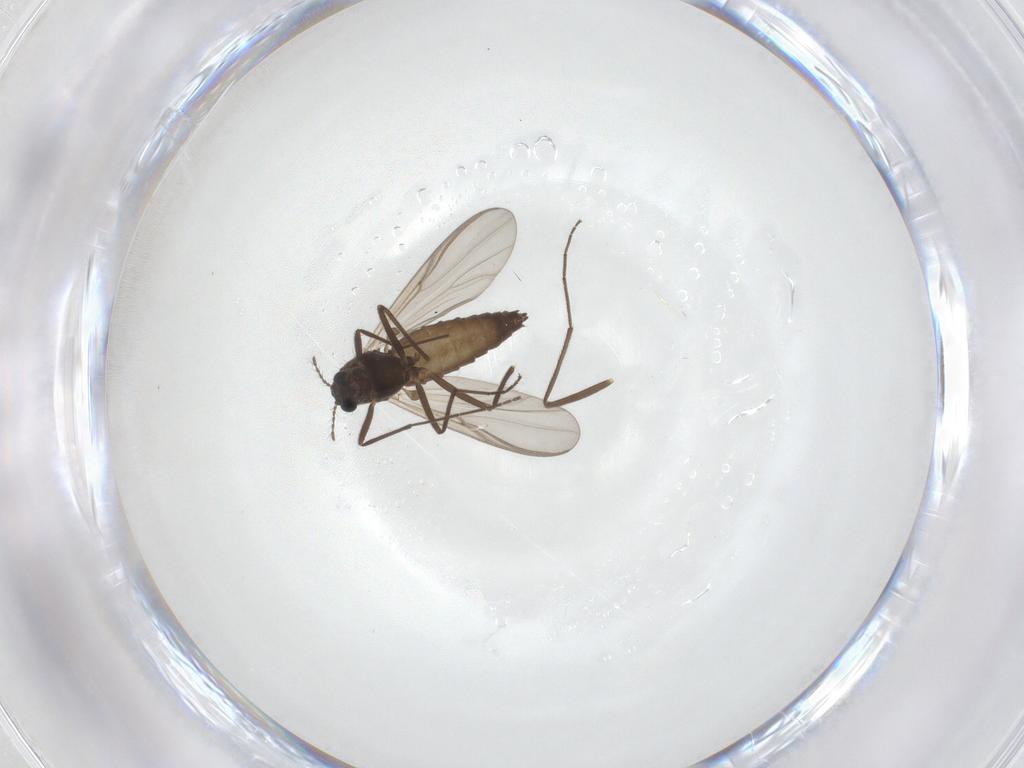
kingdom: Animalia
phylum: Arthropoda
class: Insecta
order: Diptera
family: Chironomidae
